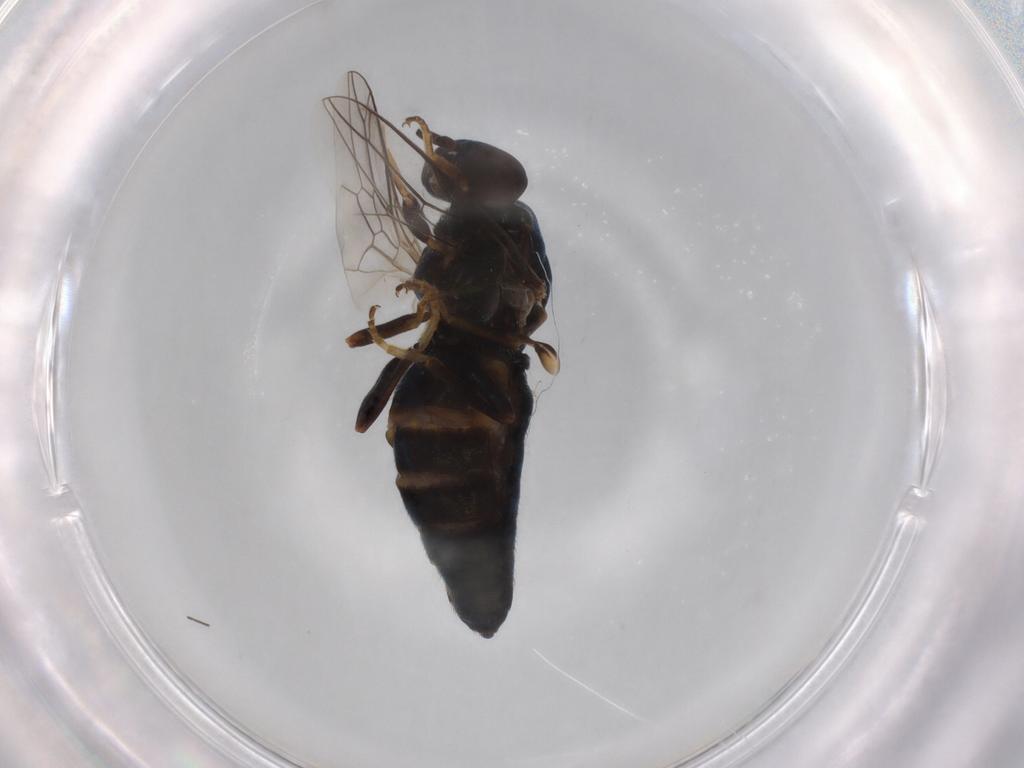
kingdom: Animalia
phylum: Arthropoda
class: Insecta
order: Diptera
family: Scenopinidae
